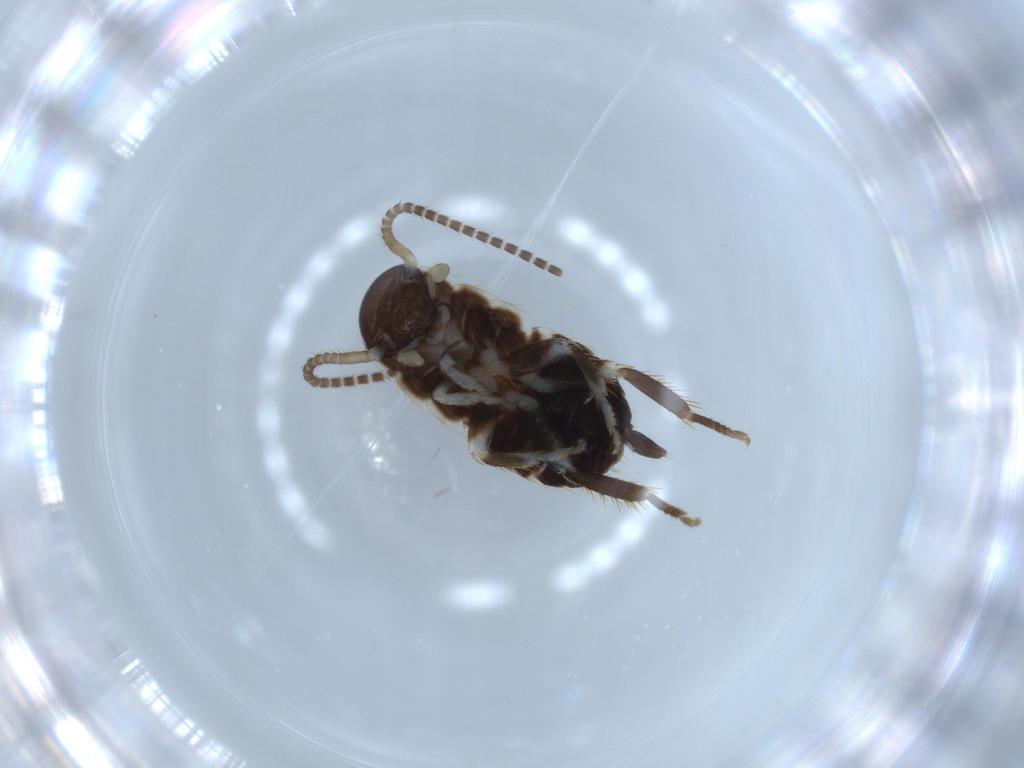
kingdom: Animalia
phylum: Arthropoda
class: Insecta
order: Blattodea
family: Ectobiidae
